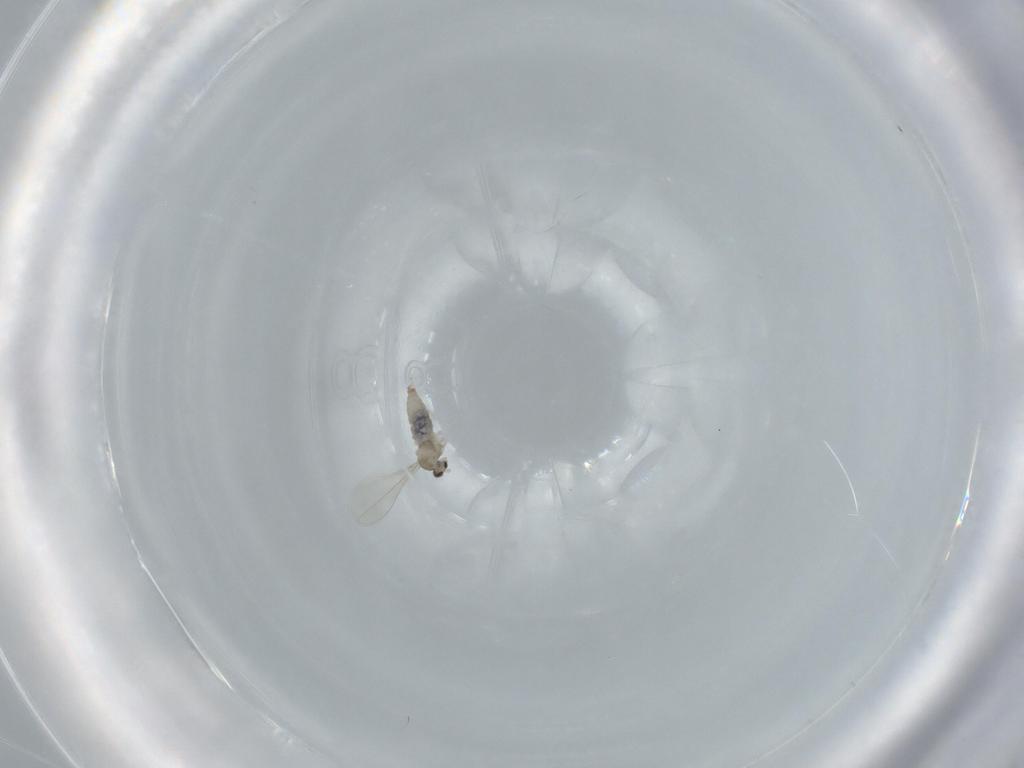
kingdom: Animalia
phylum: Arthropoda
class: Insecta
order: Diptera
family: Cecidomyiidae
